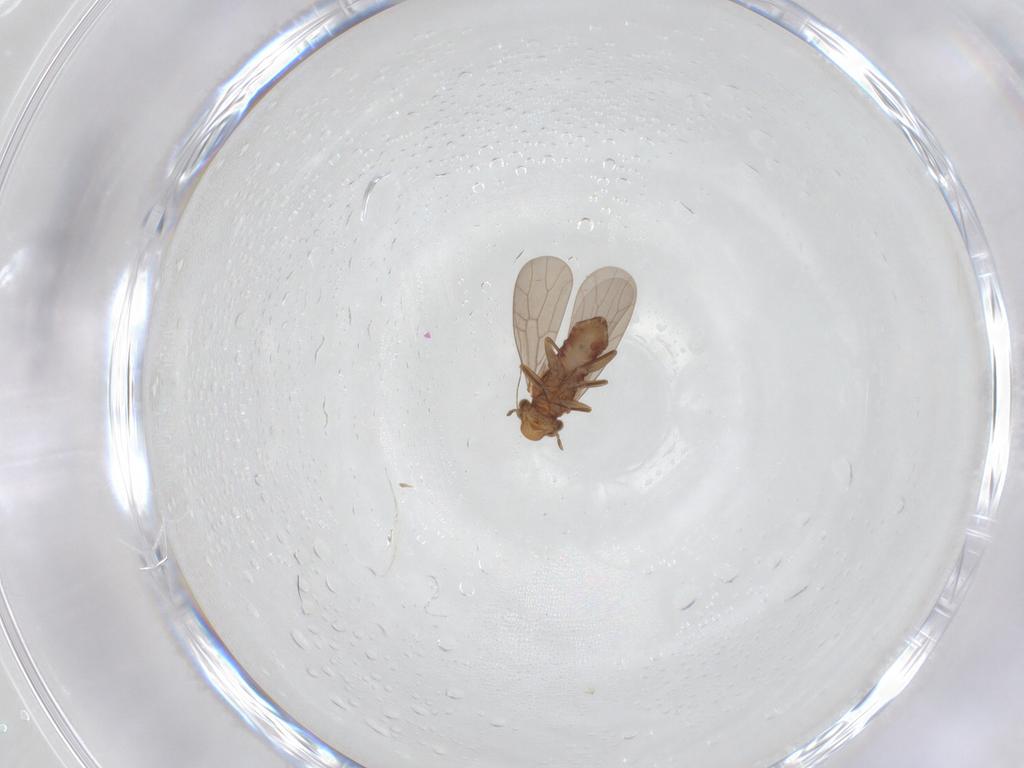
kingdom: Animalia
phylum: Arthropoda
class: Insecta
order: Psocodea
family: Lepidopsocidae
